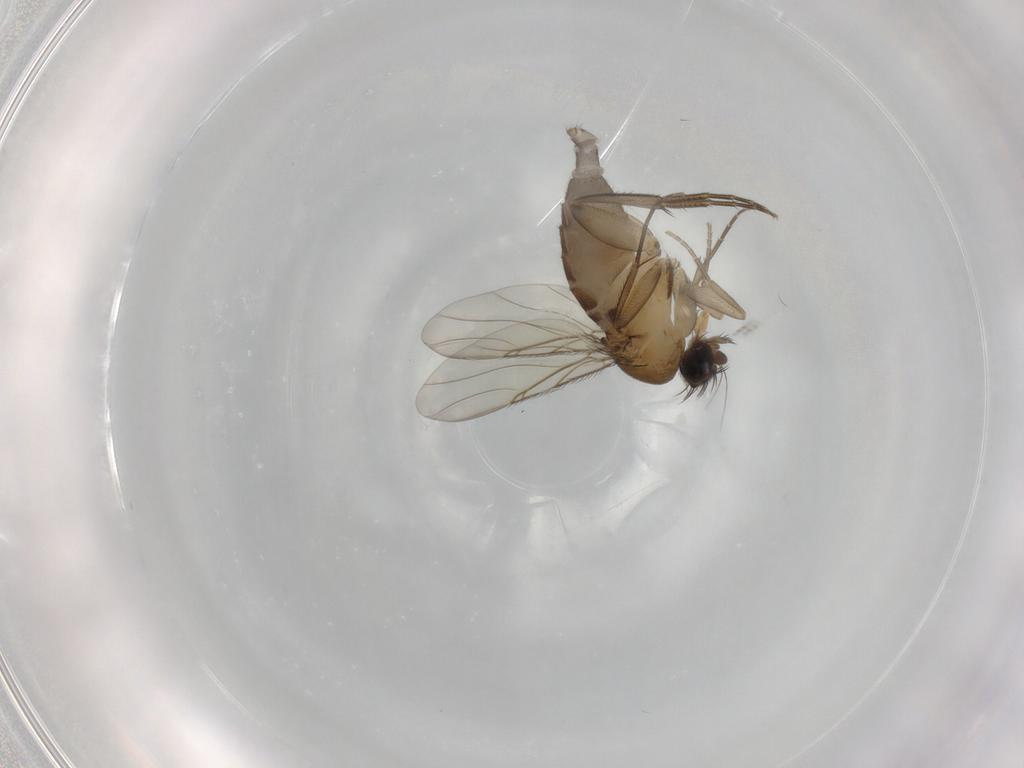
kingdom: Animalia
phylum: Arthropoda
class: Insecta
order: Diptera
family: Phoridae
